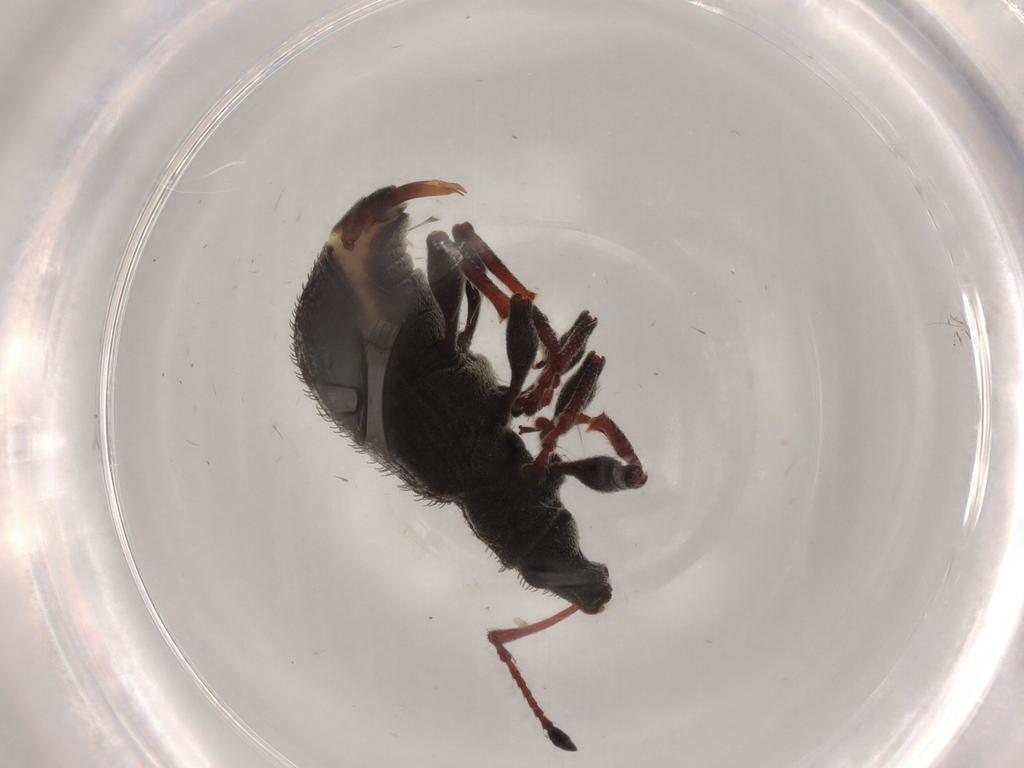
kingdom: Animalia
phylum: Arthropoda
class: Insecta
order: Coleoptera
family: Curculionidae
